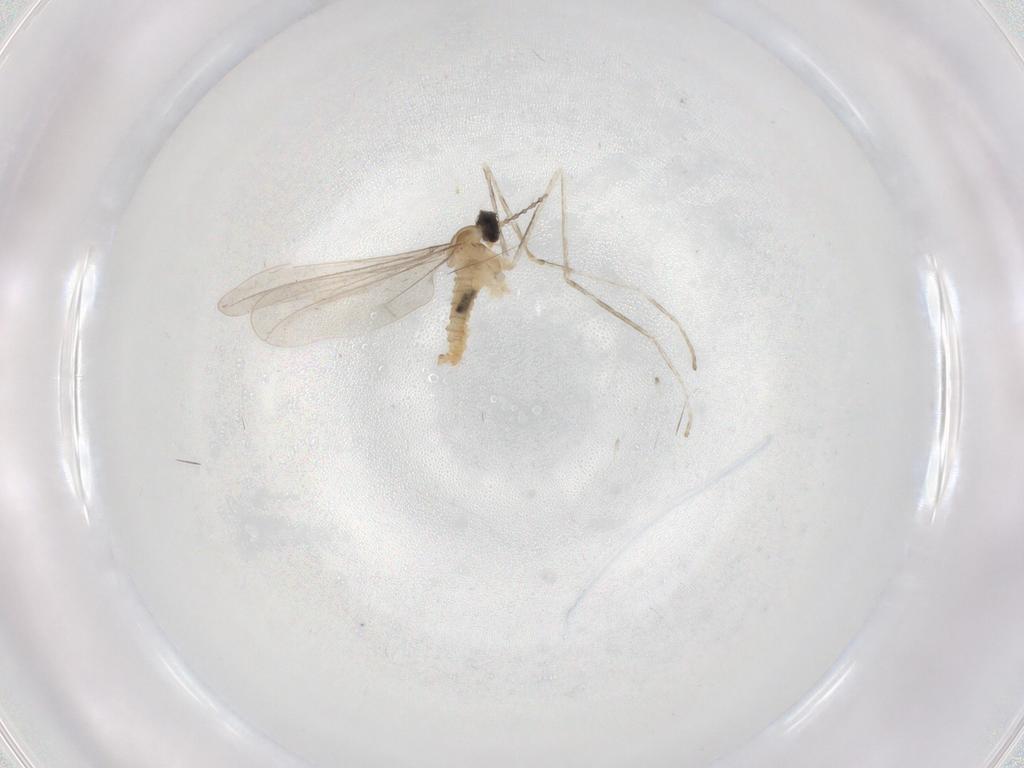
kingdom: Animalia
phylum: Arthropoda
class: Insecta
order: Diptera
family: Cecidomyiidae
